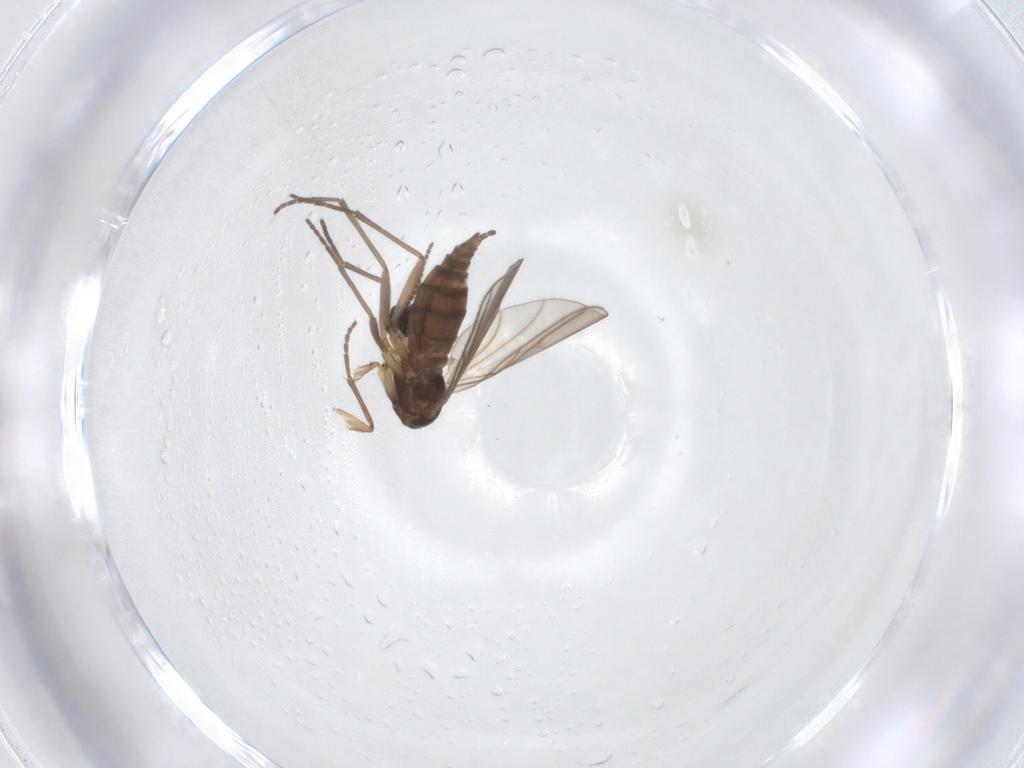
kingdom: Animalia
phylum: Arthropoda
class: Insecta
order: Diptera
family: Sciaridae
